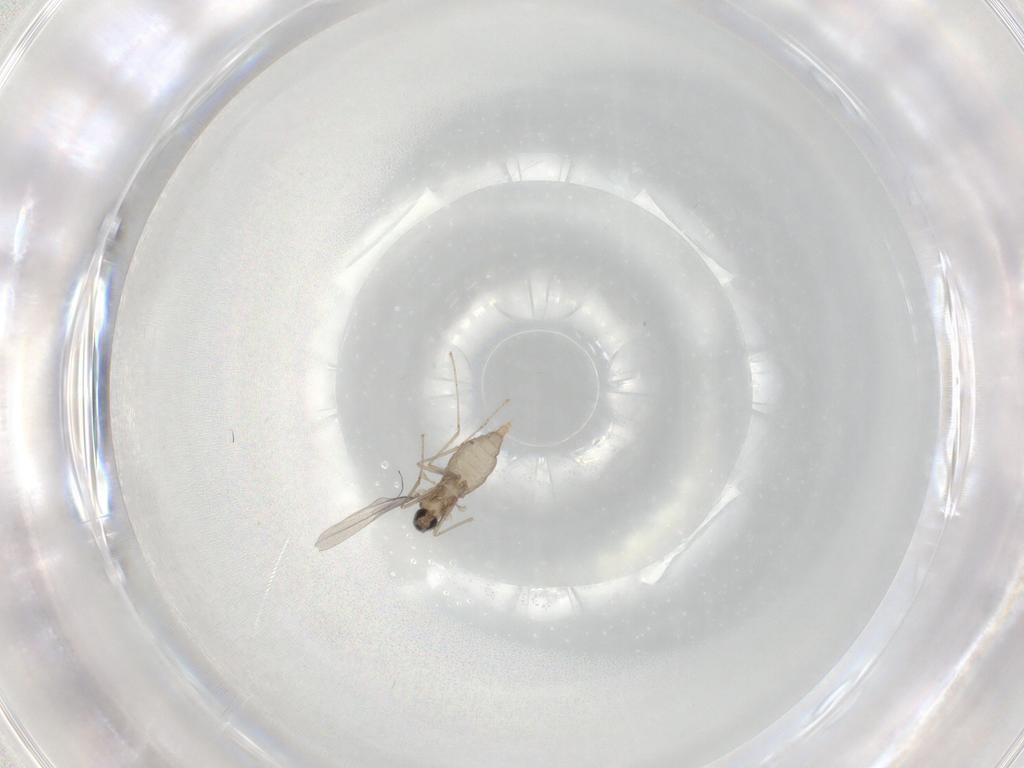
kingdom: Animalia
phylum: Arthropoda
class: Insecta
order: Diptera
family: Cecidomyiidae
